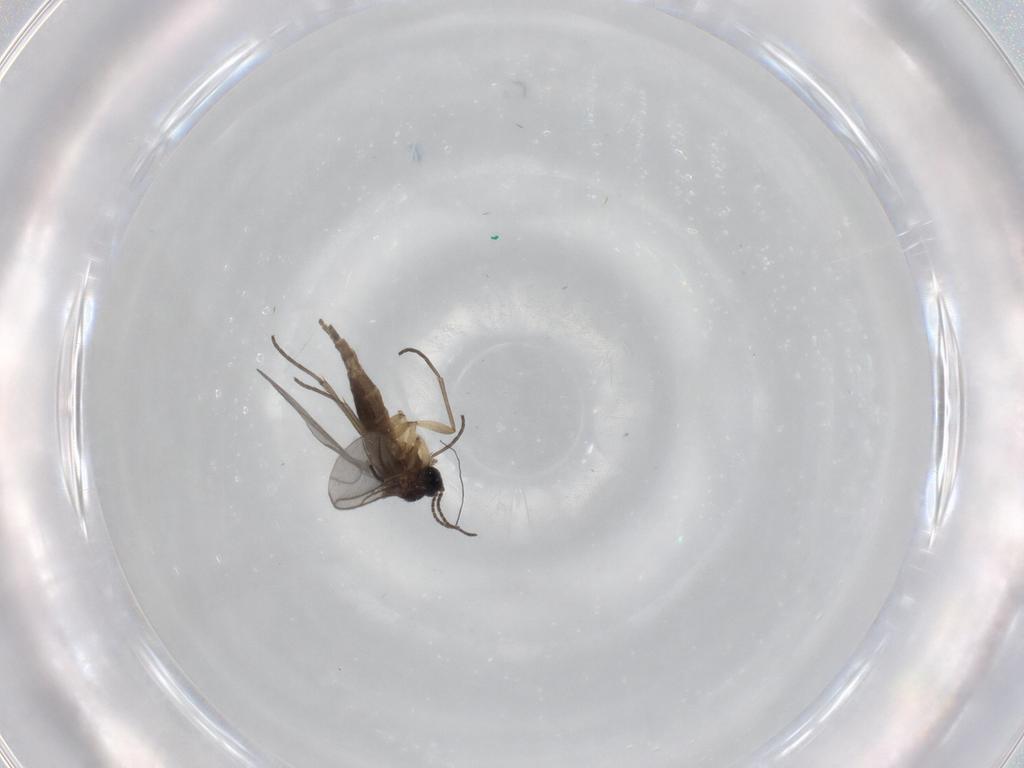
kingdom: Animalia
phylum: Arthropoda
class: Insecta
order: Diptera
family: Sciaridae
